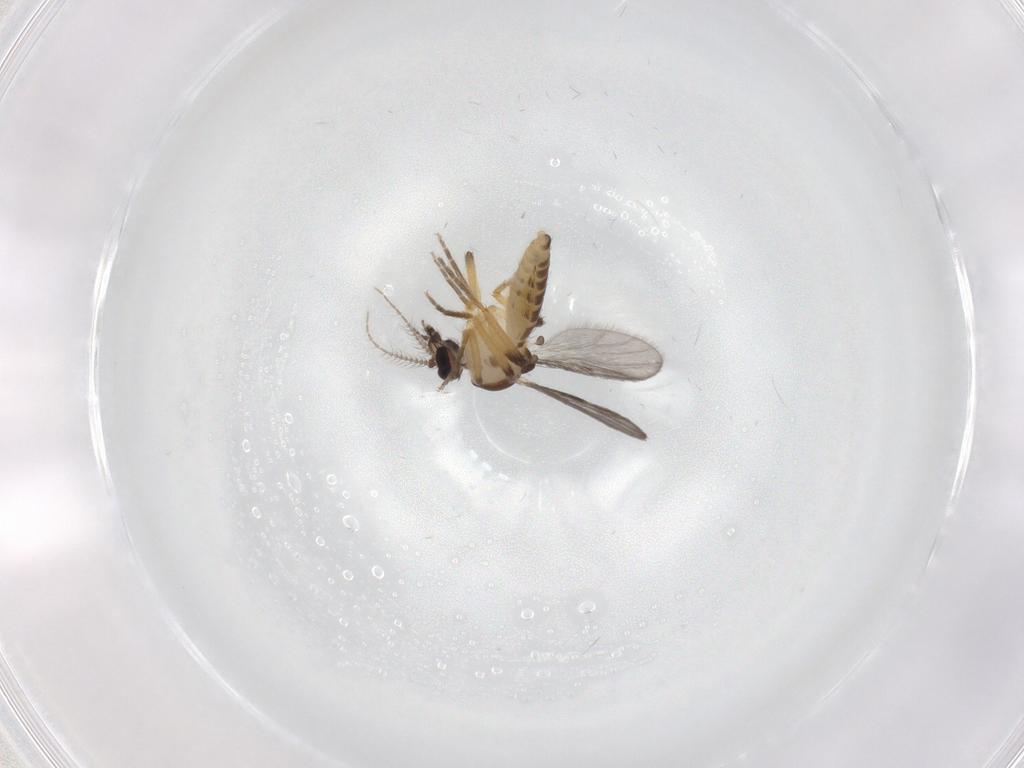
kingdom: Animalia
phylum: Arthropoda
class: Insecta
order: Diptera
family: Ceratopogonidae
